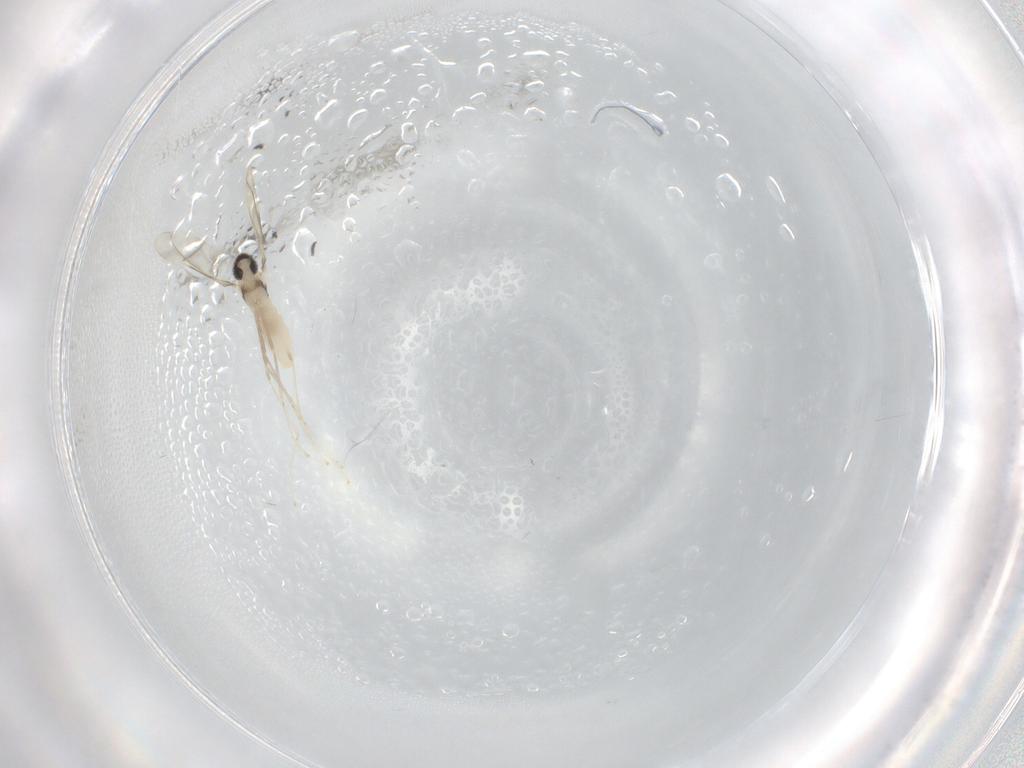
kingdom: Animalia
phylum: Arthropoda
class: Insecta
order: Diptera
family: Cecidomyiidae
